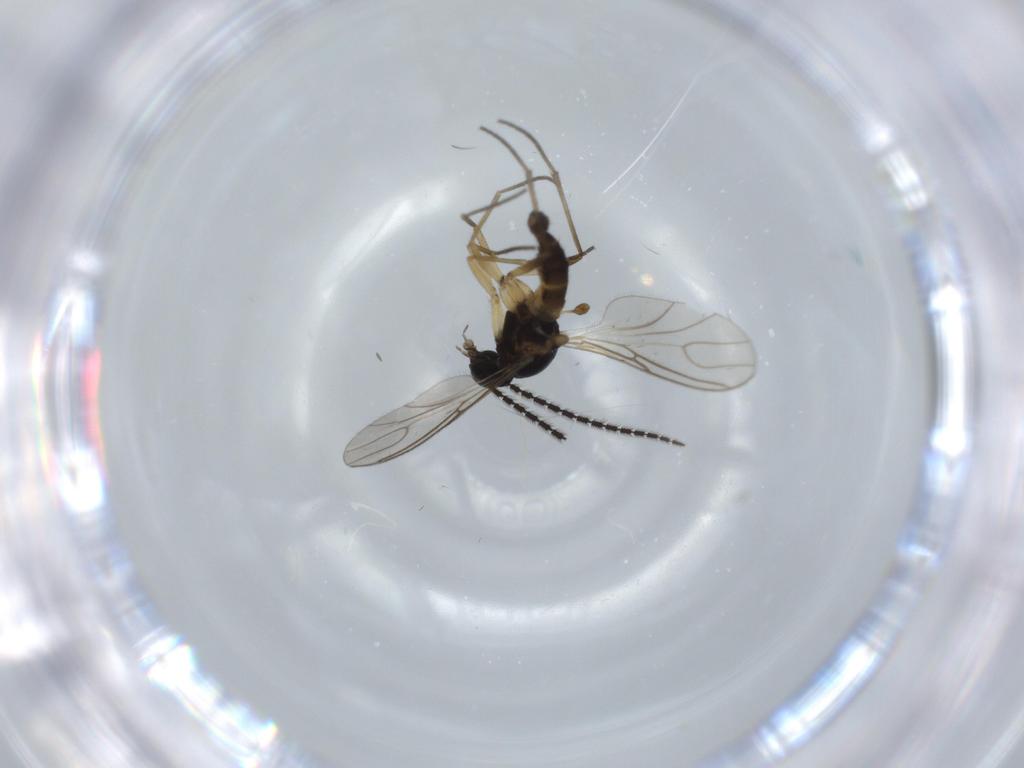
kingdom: Animalia
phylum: Arthropoda
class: Insecta
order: Diptera
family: Sciaridae
